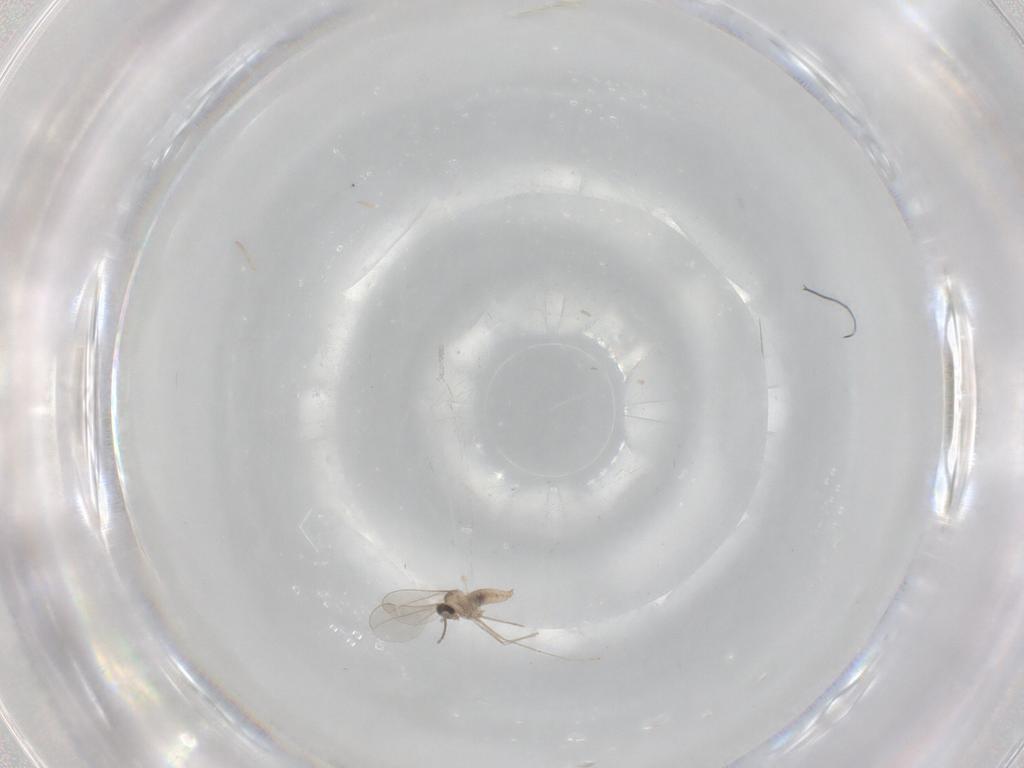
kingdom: Animalia
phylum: Arthropoda
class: Insecta
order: Diptera
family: Cecidomyiidae
